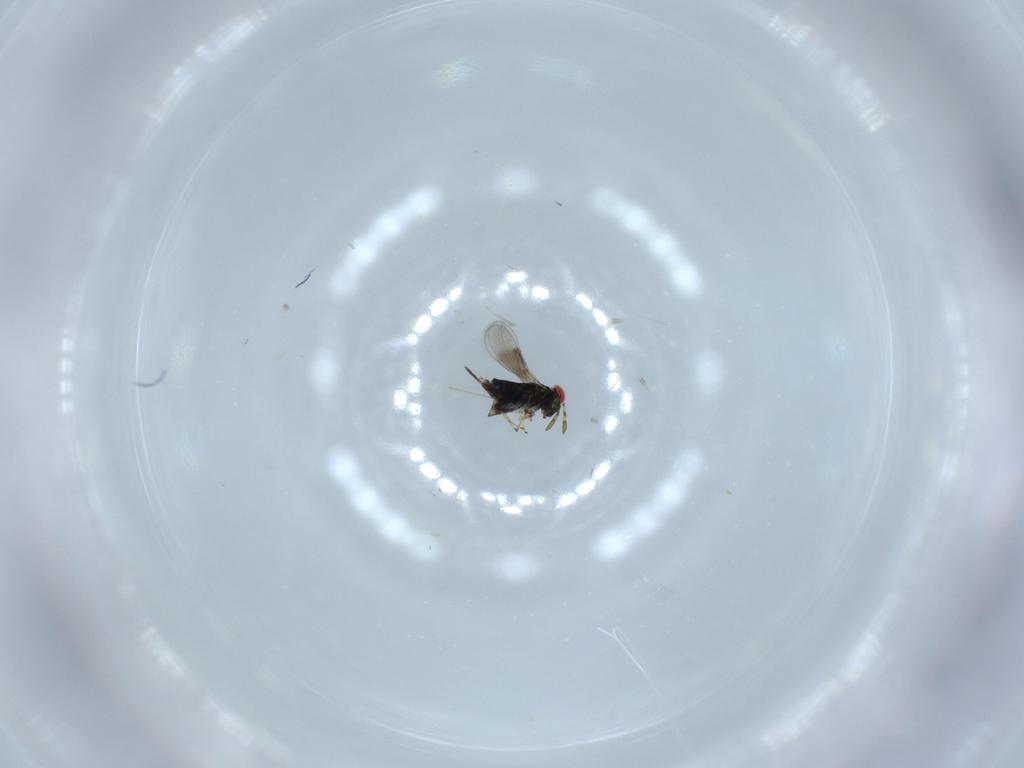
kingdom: Animalia
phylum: Arthropoda
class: Insecta
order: Hymenoptera
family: Azotidae
